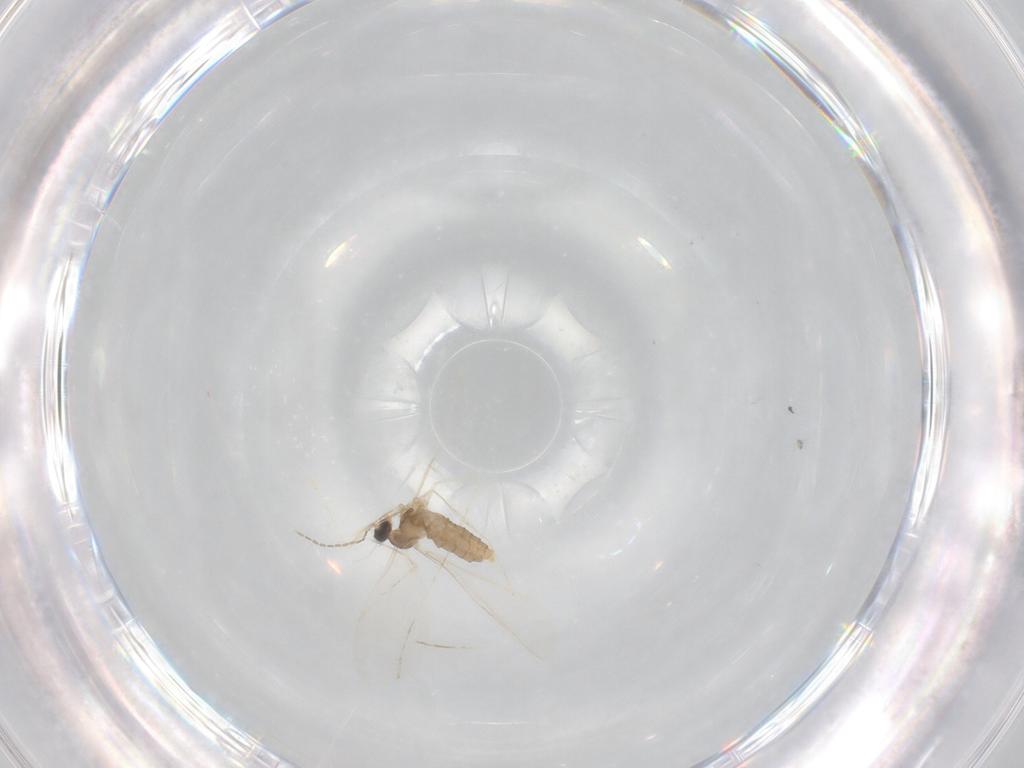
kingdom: Animalia
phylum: Arthropoda
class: Insecta
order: Diptera
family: Cecidomyiidae
